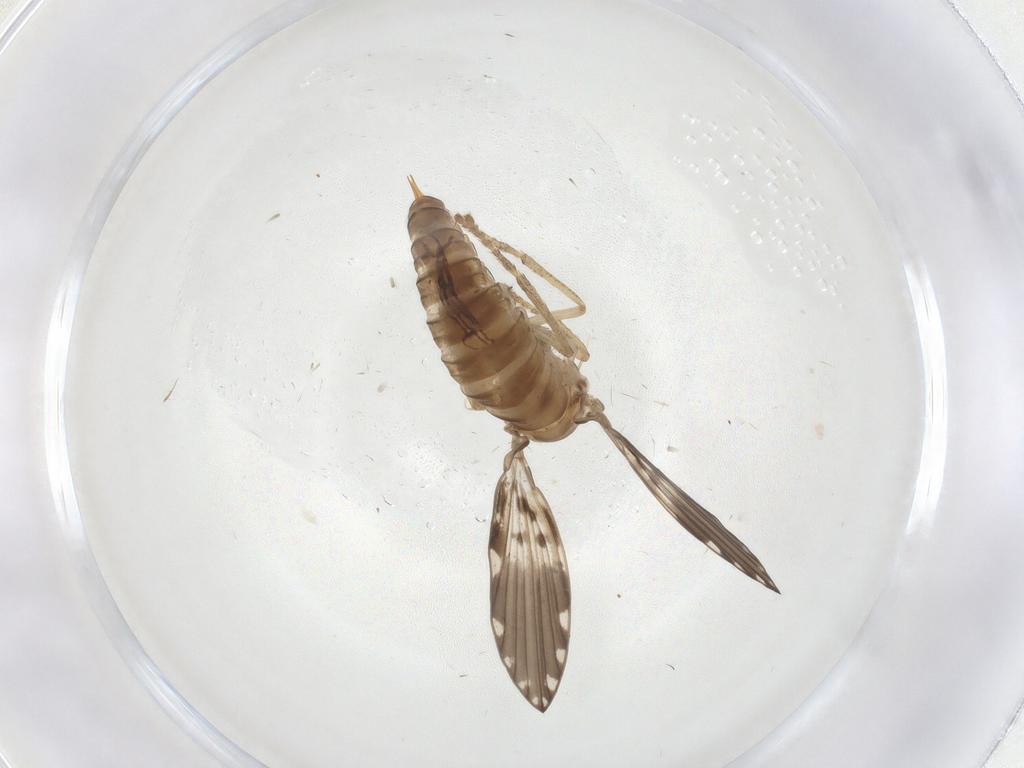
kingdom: Animalia
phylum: Arthropoda
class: Insecta
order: Diptera
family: Psychodidae
